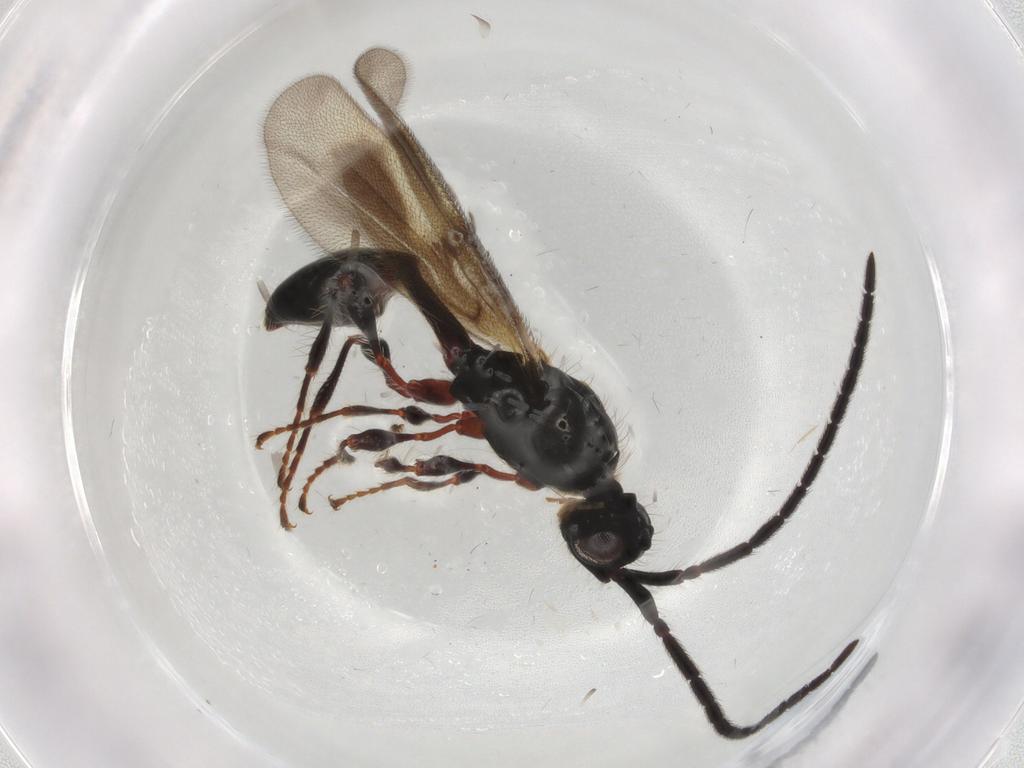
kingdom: Animalia
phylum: Arthropoda
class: Insecta
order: Hymenoptera
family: Diapriidae
